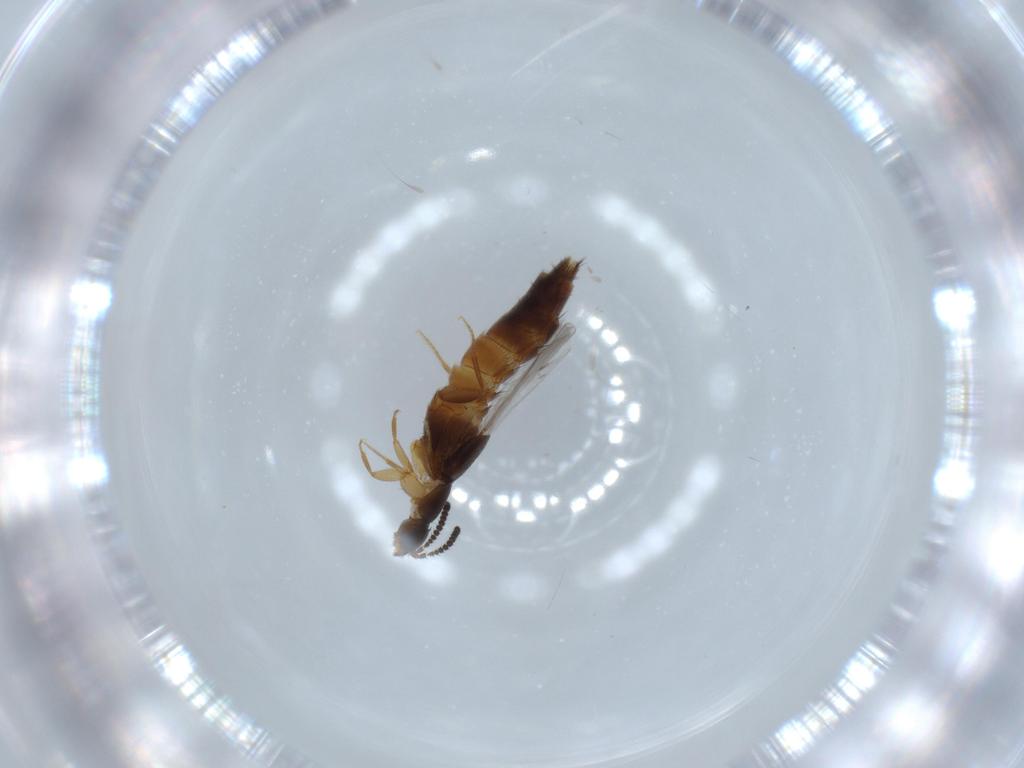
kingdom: Animalia
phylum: Arthropoda
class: Insecta
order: Coleoptera
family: Staphylinidae
